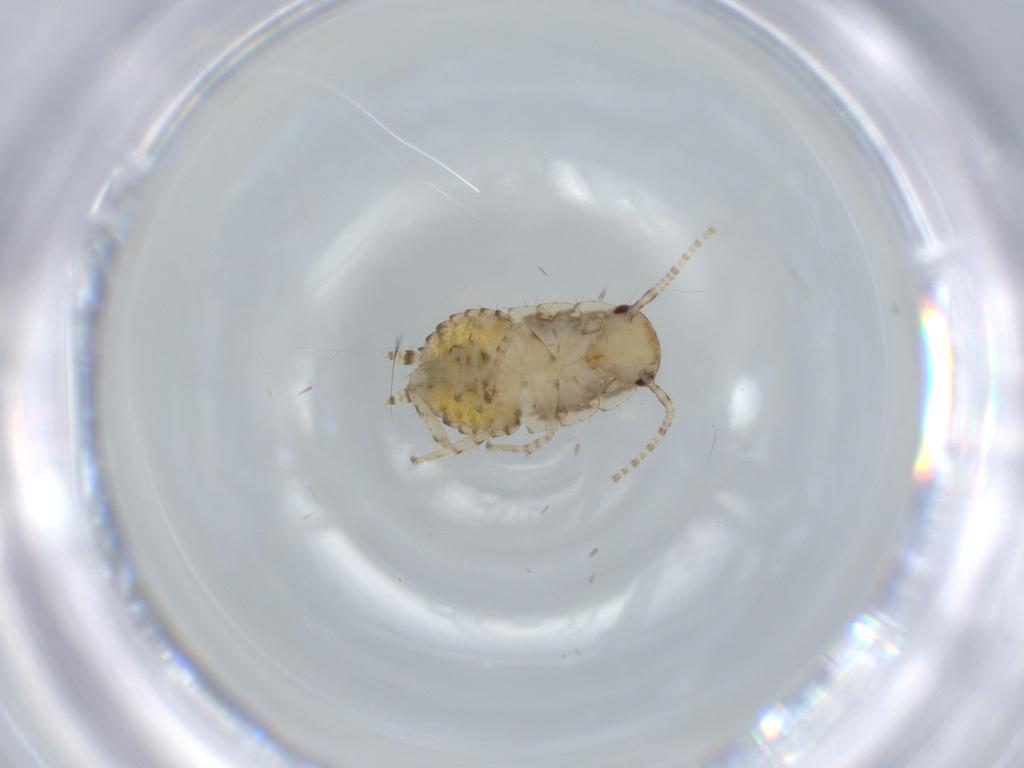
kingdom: Animalia
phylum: Arthropoda
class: Insecta
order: Blattodea
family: Ectobiidae
